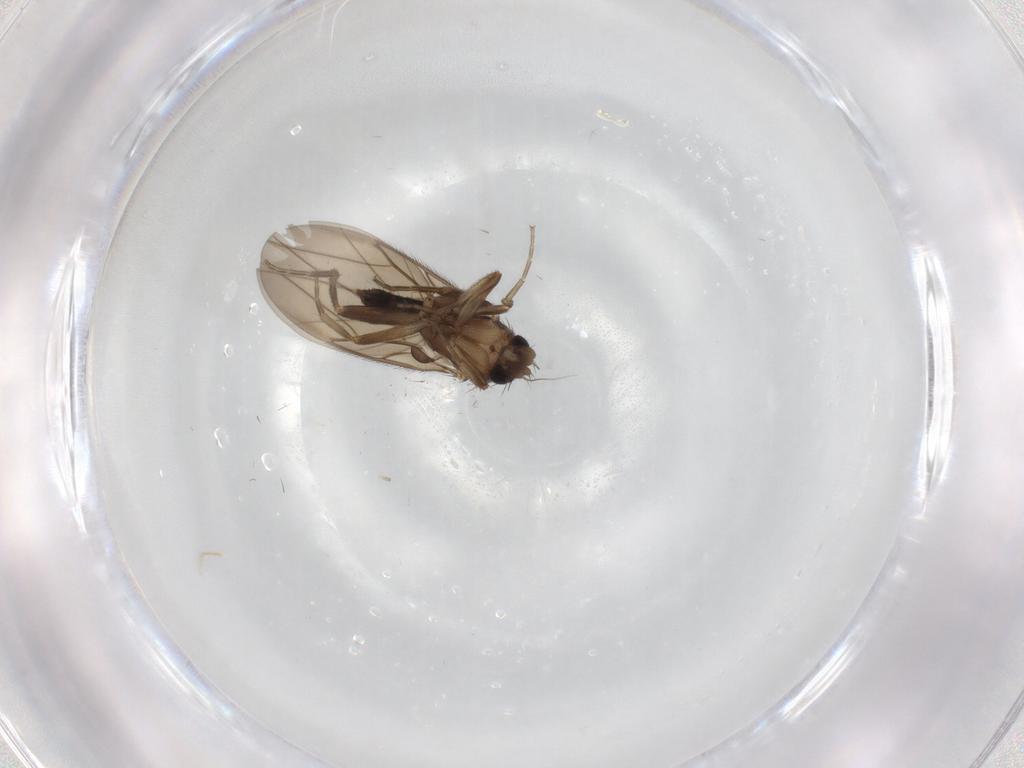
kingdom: Animalia
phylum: Arthropoda
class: Insecta
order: Diptera
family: Phoridae
